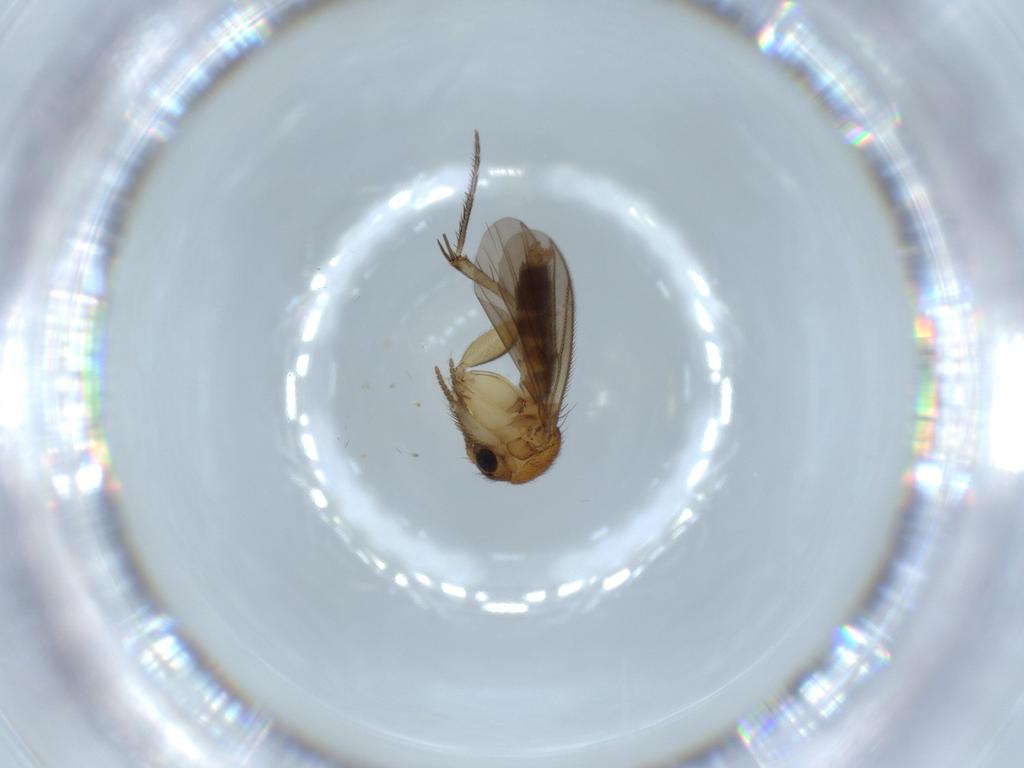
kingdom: Animalia
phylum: Arthropoda
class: Insecta
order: Diptera
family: Mycetophilidae
